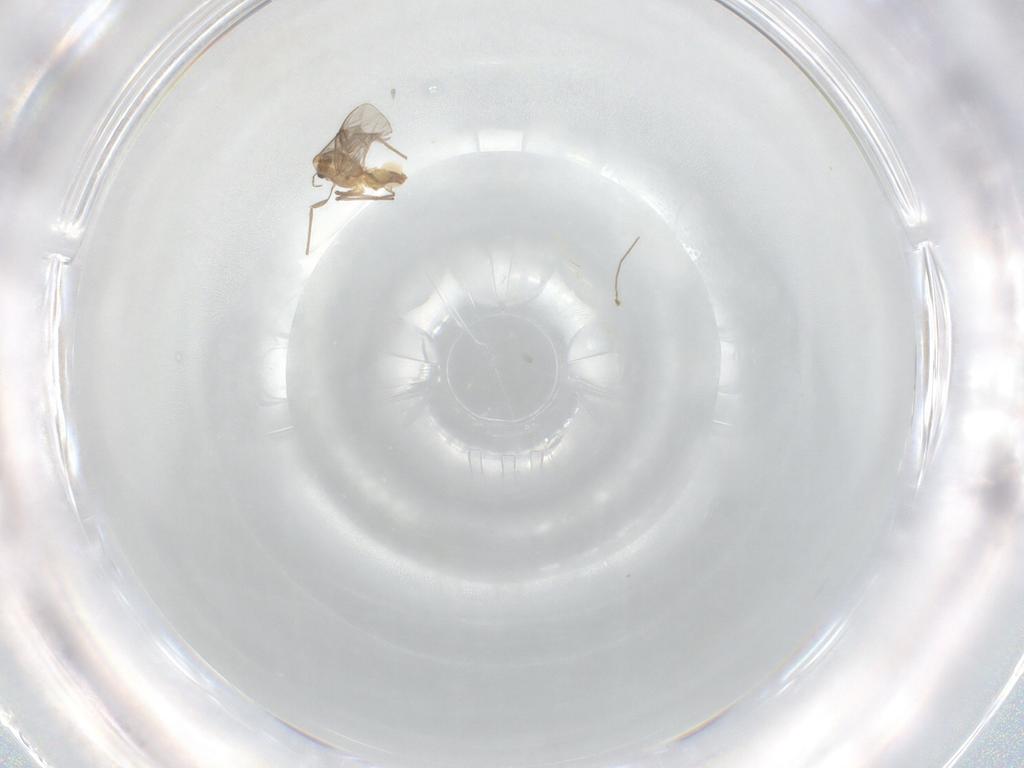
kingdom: Animalia
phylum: Arthropoda
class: Insecta
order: Diptera
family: Chironomidae
